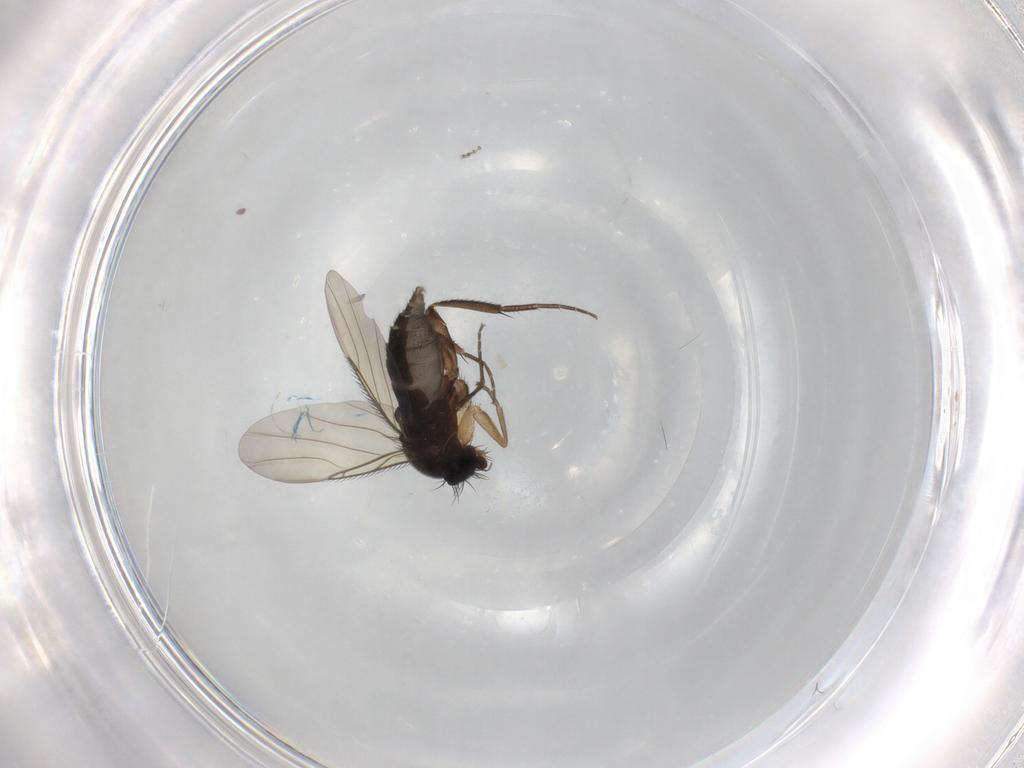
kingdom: Animalia
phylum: Arthropoda
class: Insecta
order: Diptera
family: Phoridae
